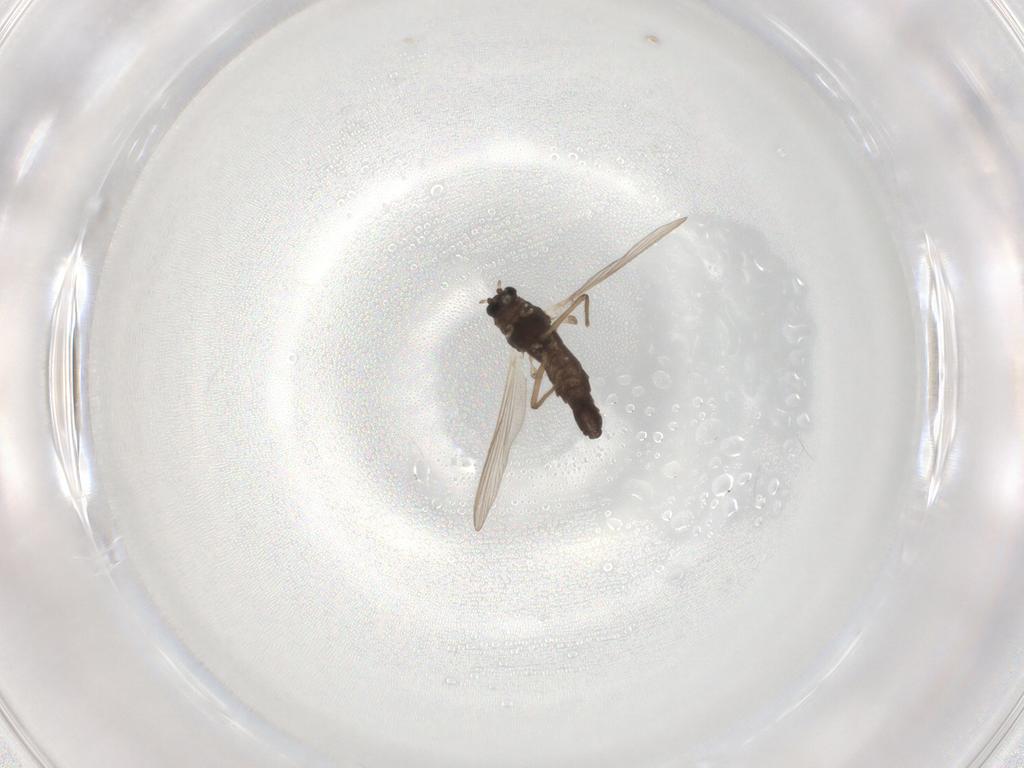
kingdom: Animalia
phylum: Arthropoda
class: Insecta
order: Diptera
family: Chironomidae
